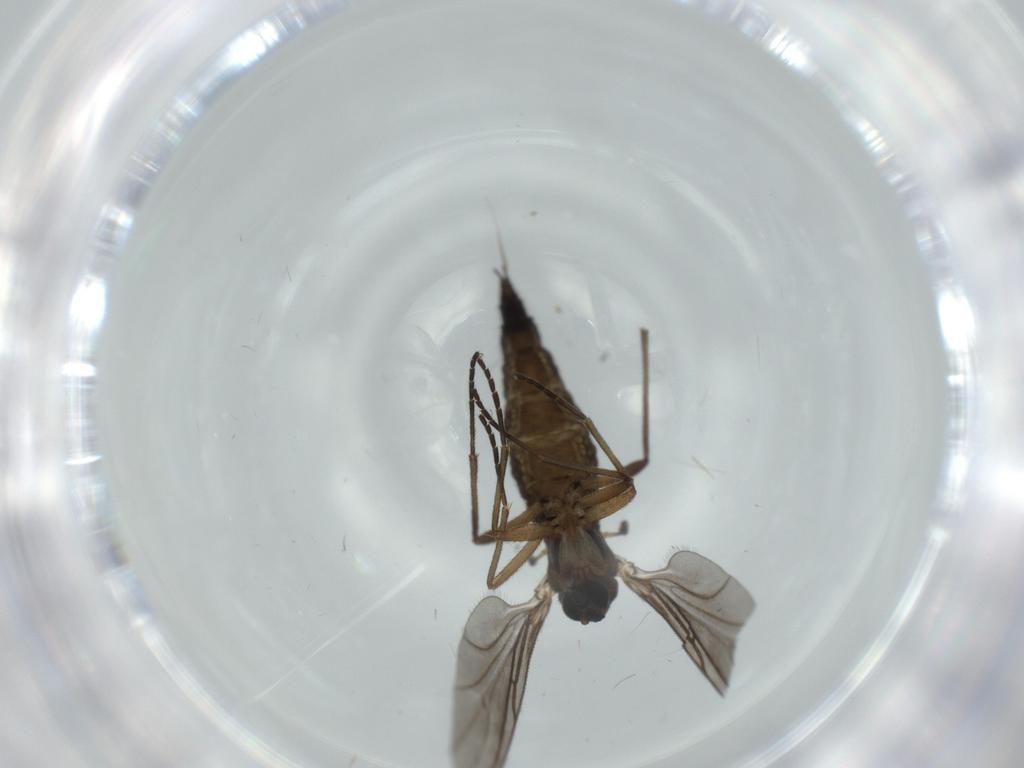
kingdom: Animalia
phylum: Arthropoda
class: Insecta
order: Diptera
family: Sciaridae
